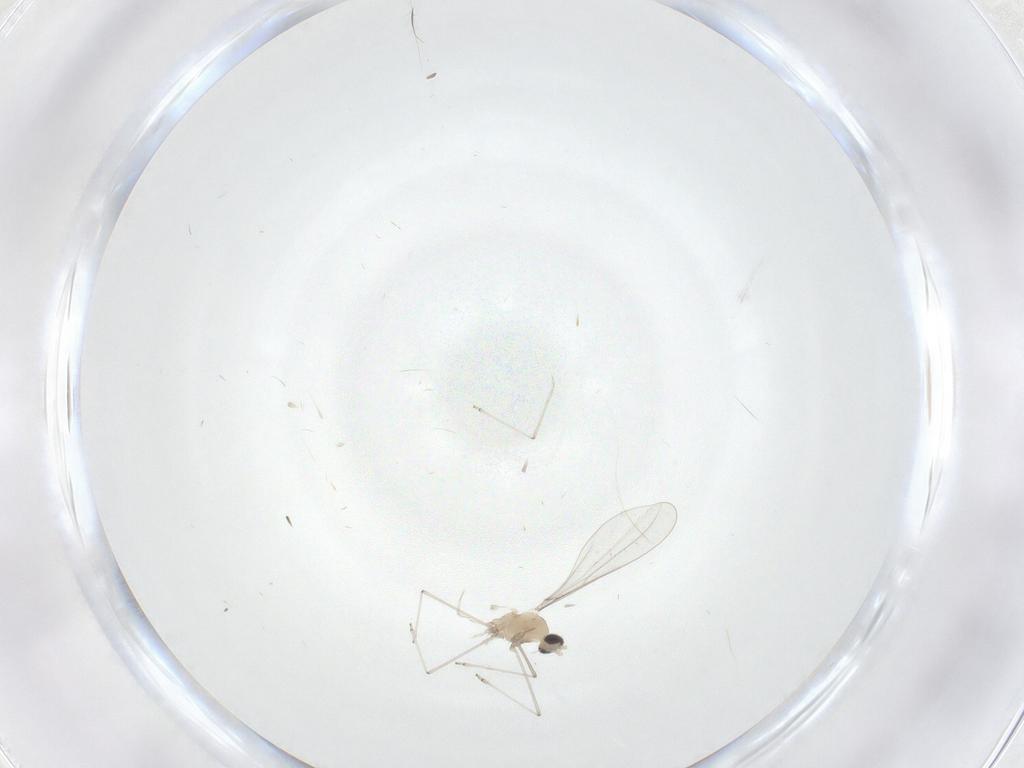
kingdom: Animalia
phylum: Arthropoda
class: Insecta
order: Diptera
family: Cecidomyiidae
